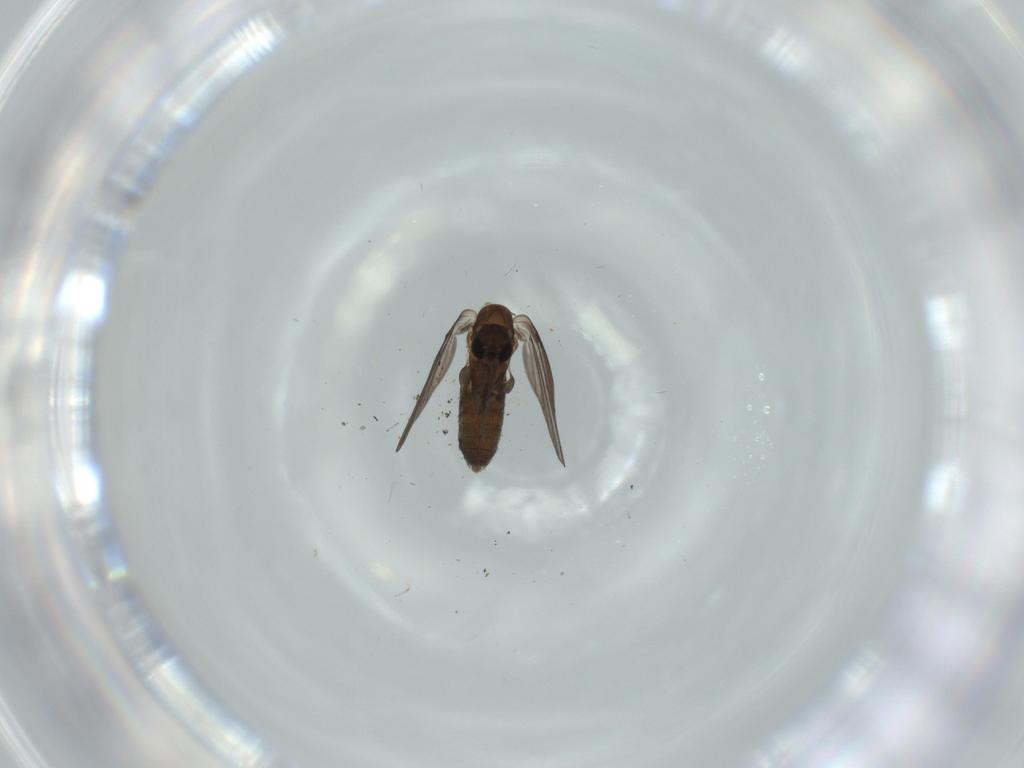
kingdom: Animalia
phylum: Arthropoda
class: Insecta
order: Diptera
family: Psychodidae
